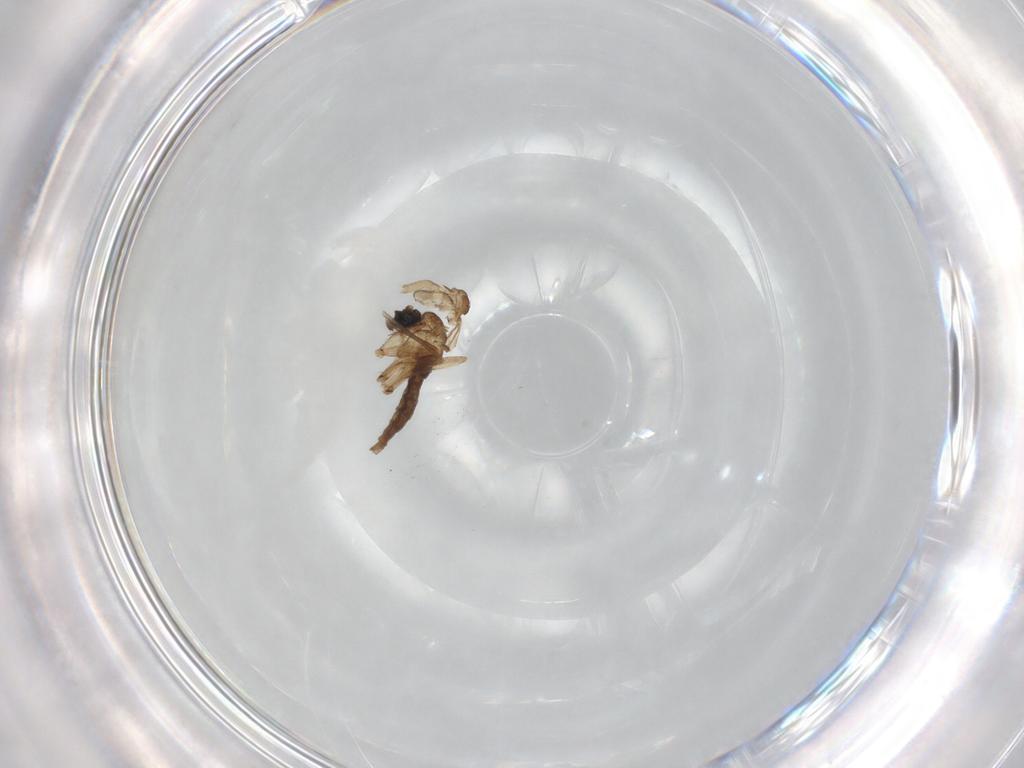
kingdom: Animalia
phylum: Arthropoda
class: Insecta
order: Diptera
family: Sciaridae
